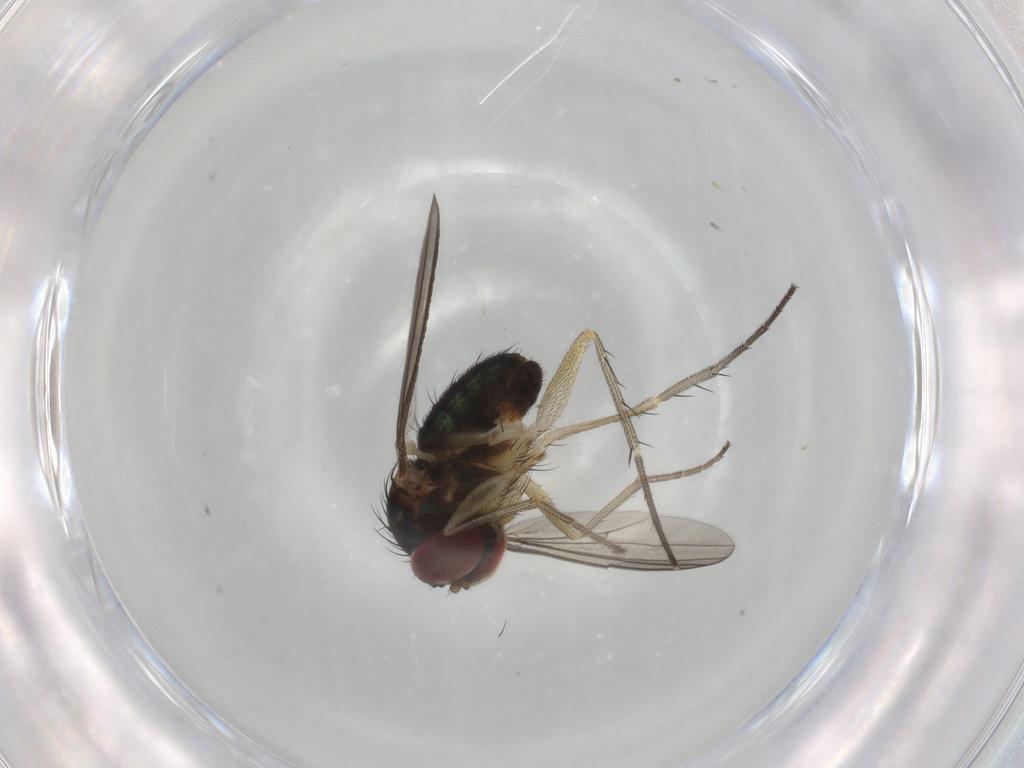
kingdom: Animalia
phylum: Arthropoda
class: Insecta
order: Diptera
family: Dolichopodidae
